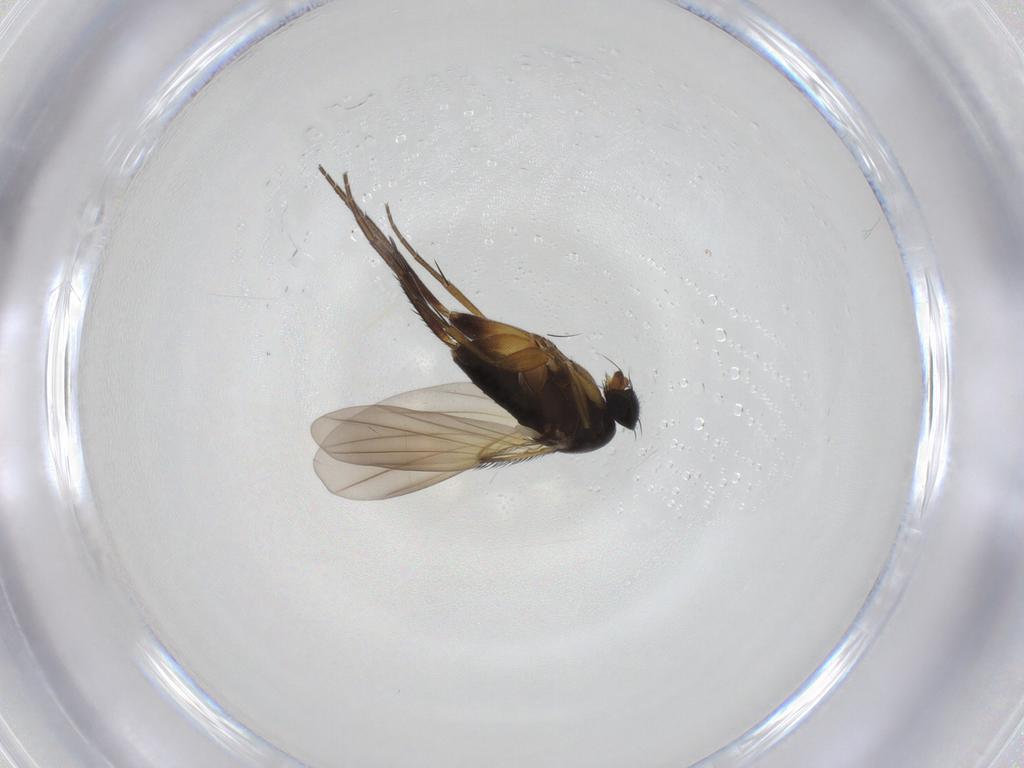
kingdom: Animalia
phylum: Arthropoda
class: Insecta
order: Diptera
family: Phoridae
